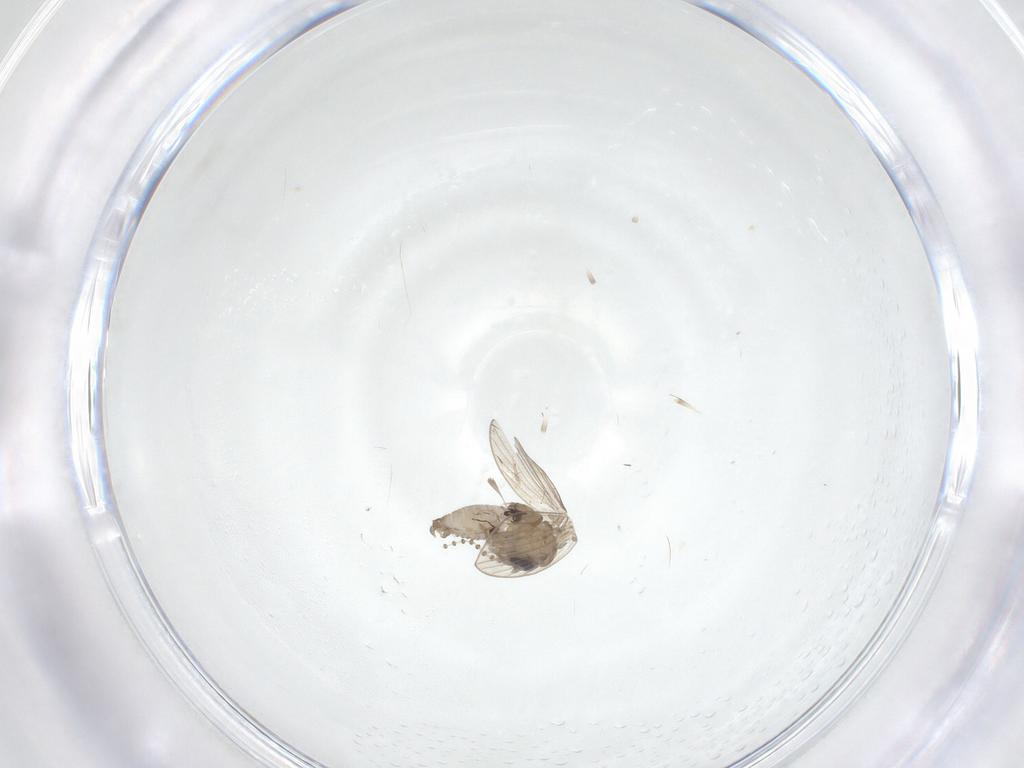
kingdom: Animalia
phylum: Arthropoda
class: Insecta
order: Diptera
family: Psychodidae
